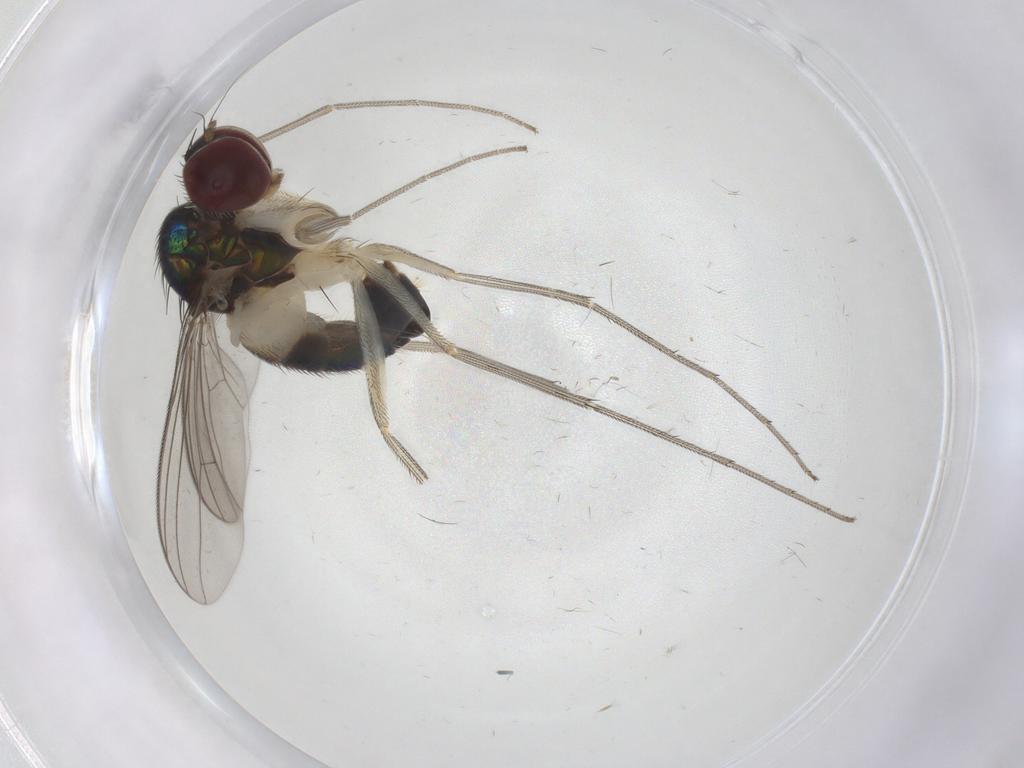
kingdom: Animalia
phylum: Arthropoda
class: Insecta
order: Diptera
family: Dolichopodidae
